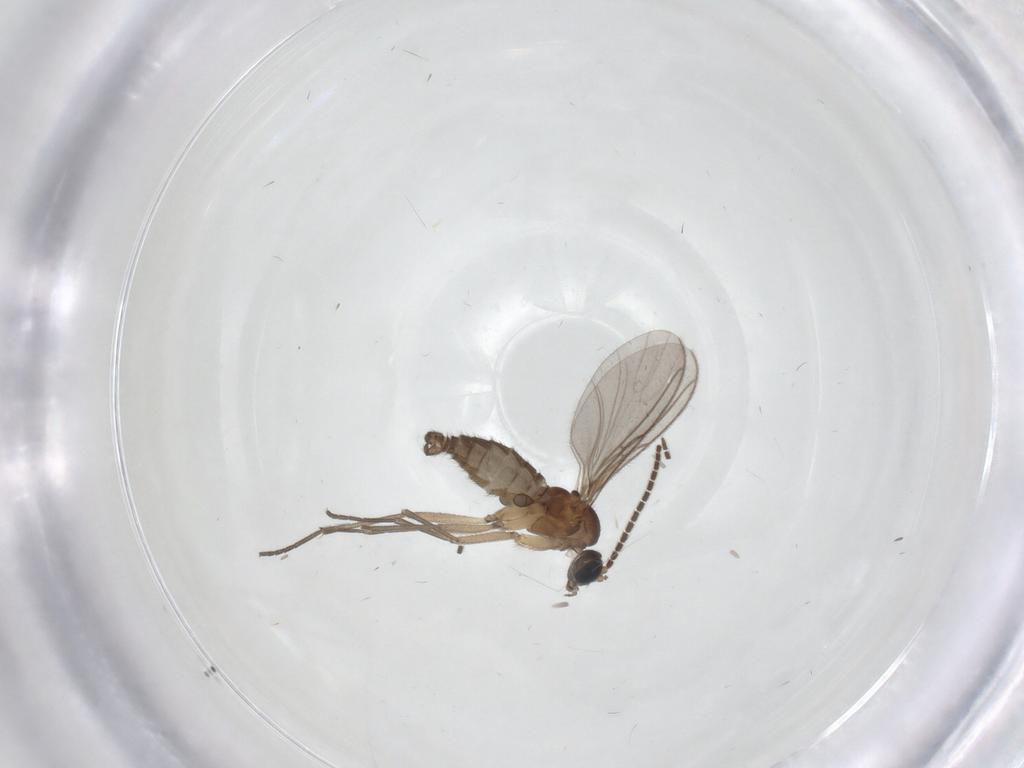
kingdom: Animalia
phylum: Arthropoda
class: Insecta
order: Diptera
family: Sciaridae
